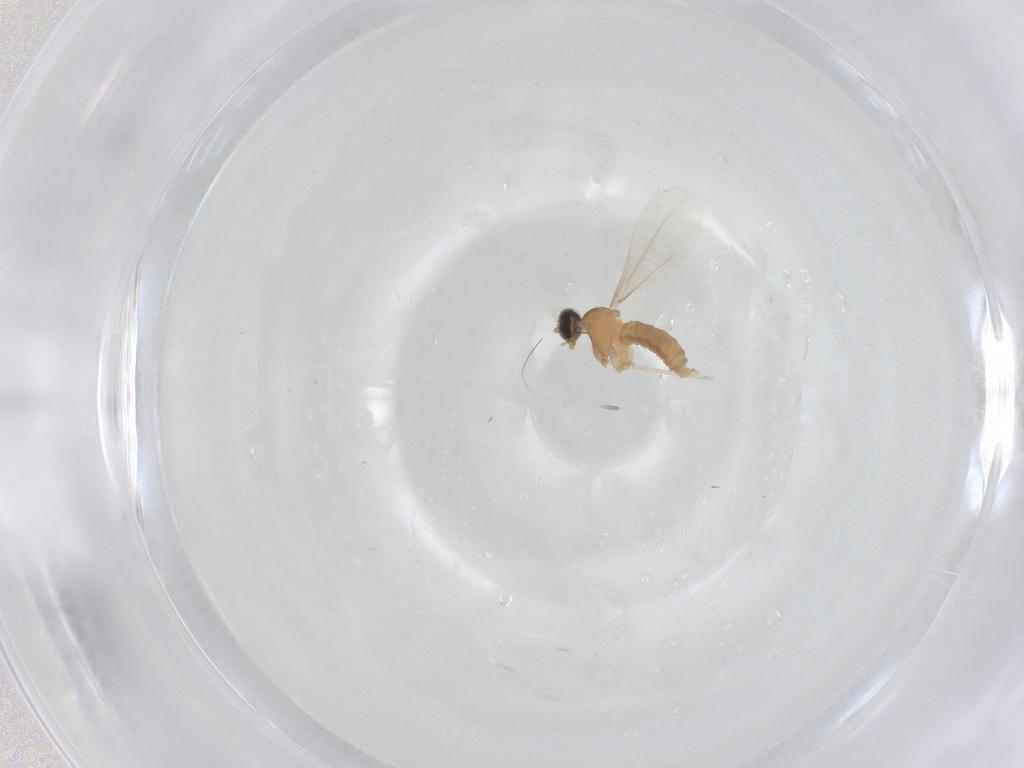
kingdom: Animalia
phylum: Arthropoda
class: Insecta
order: Diptera
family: Cecidomyiidae
